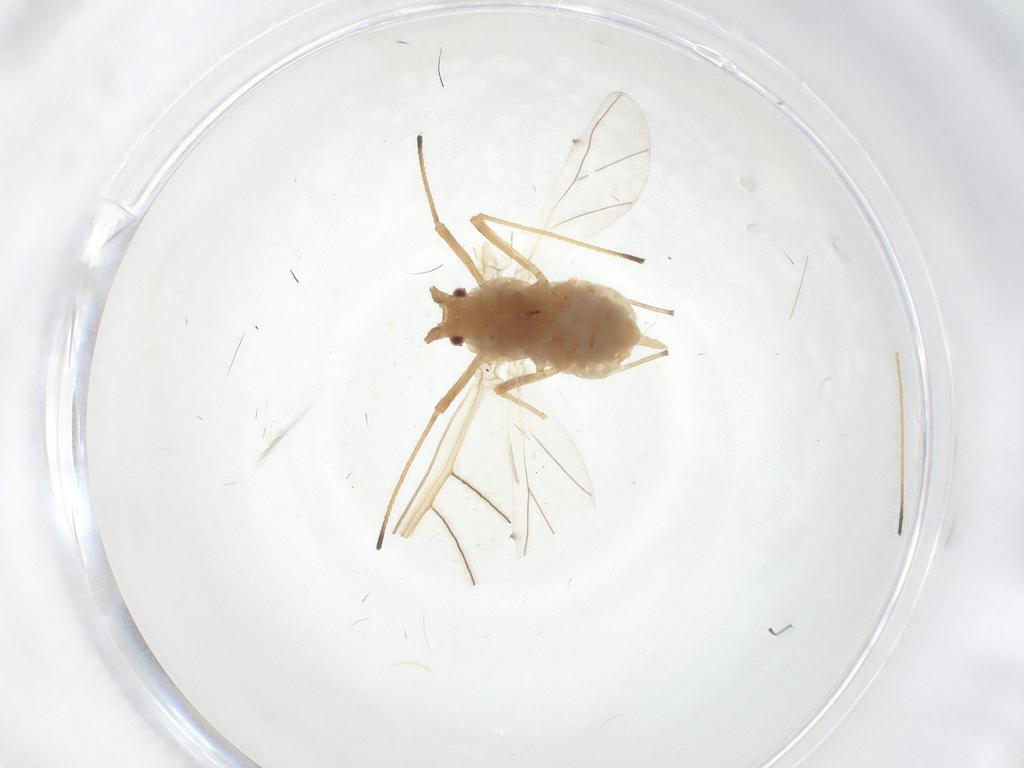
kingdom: Animalia
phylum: Arthropoda
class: Insecta
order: Hemiptera
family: Aphididae
